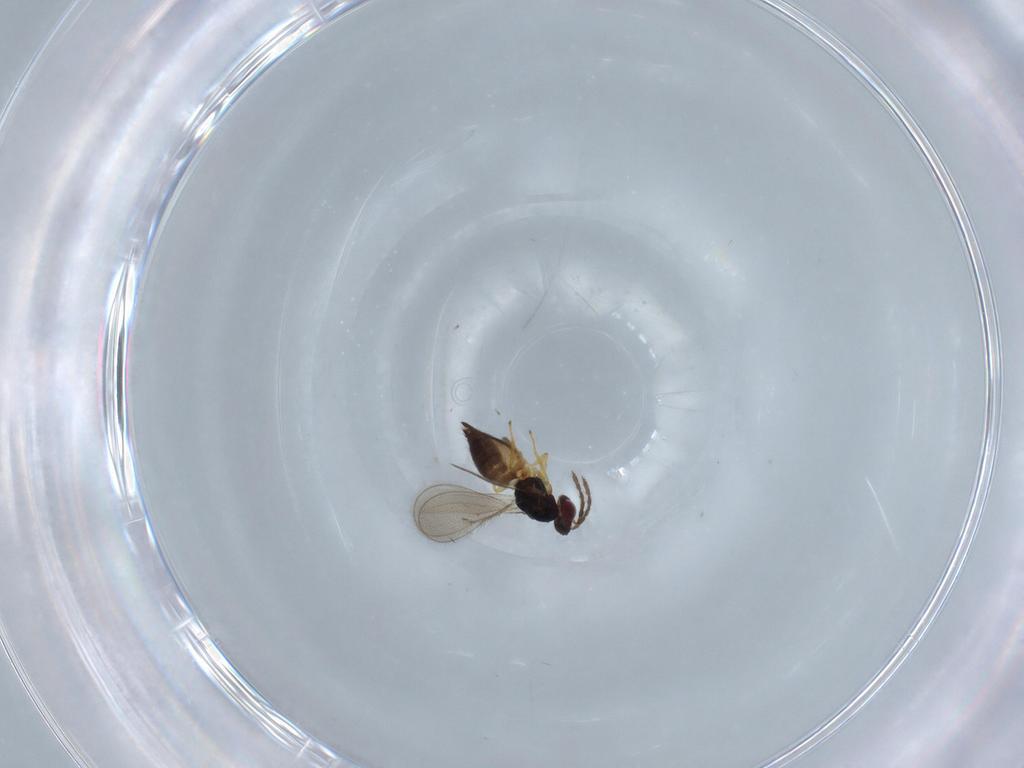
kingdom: Animalia
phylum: Arthropoda
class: Insecta
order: Hymenoptera
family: Eulophidae
